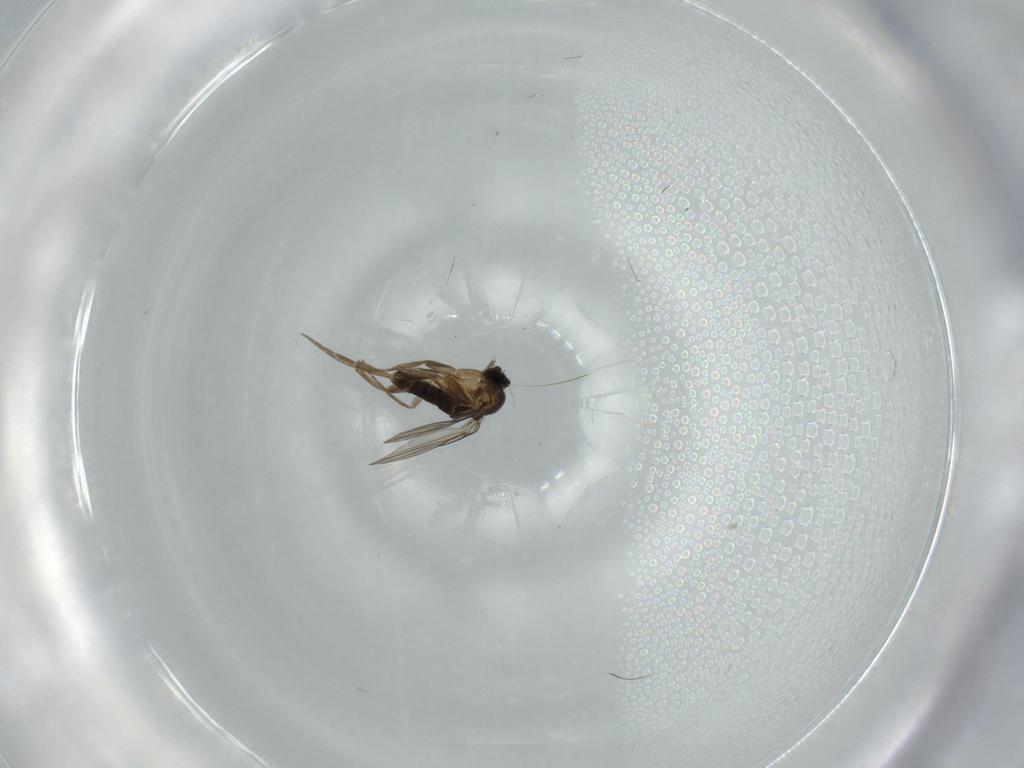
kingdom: Animalia
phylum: Arthropoda
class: Insecta
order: Diptera
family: Phoridae
